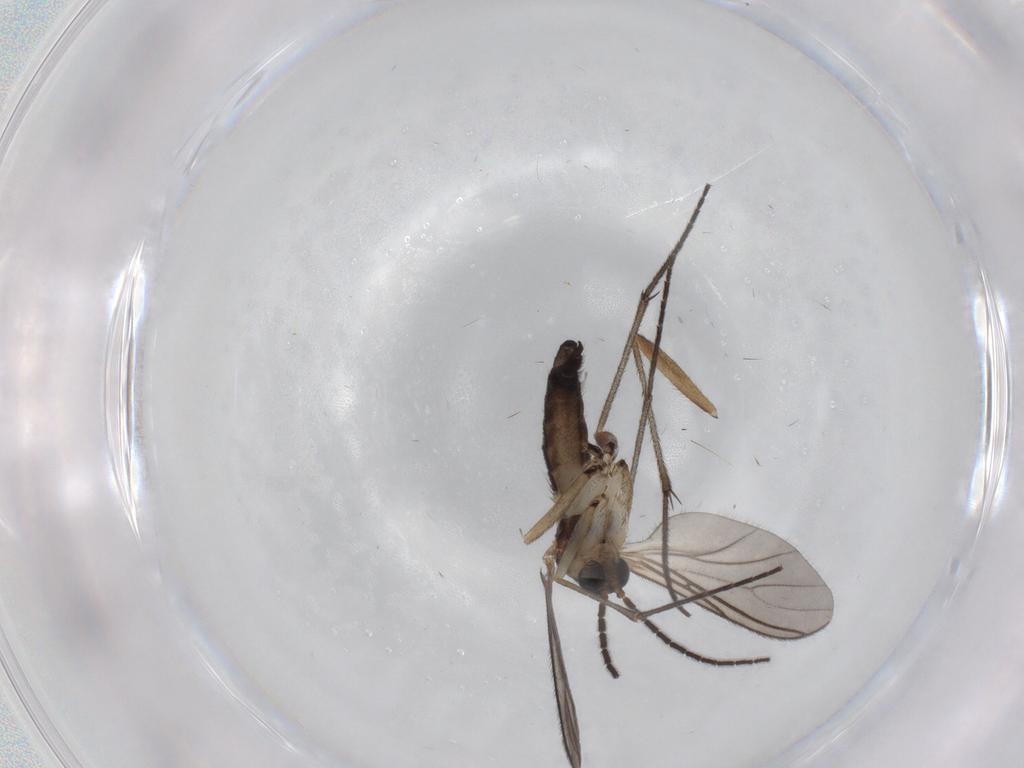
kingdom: Animalia
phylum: Arthropoda
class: Insecta
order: Diptera
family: Sciaridae
